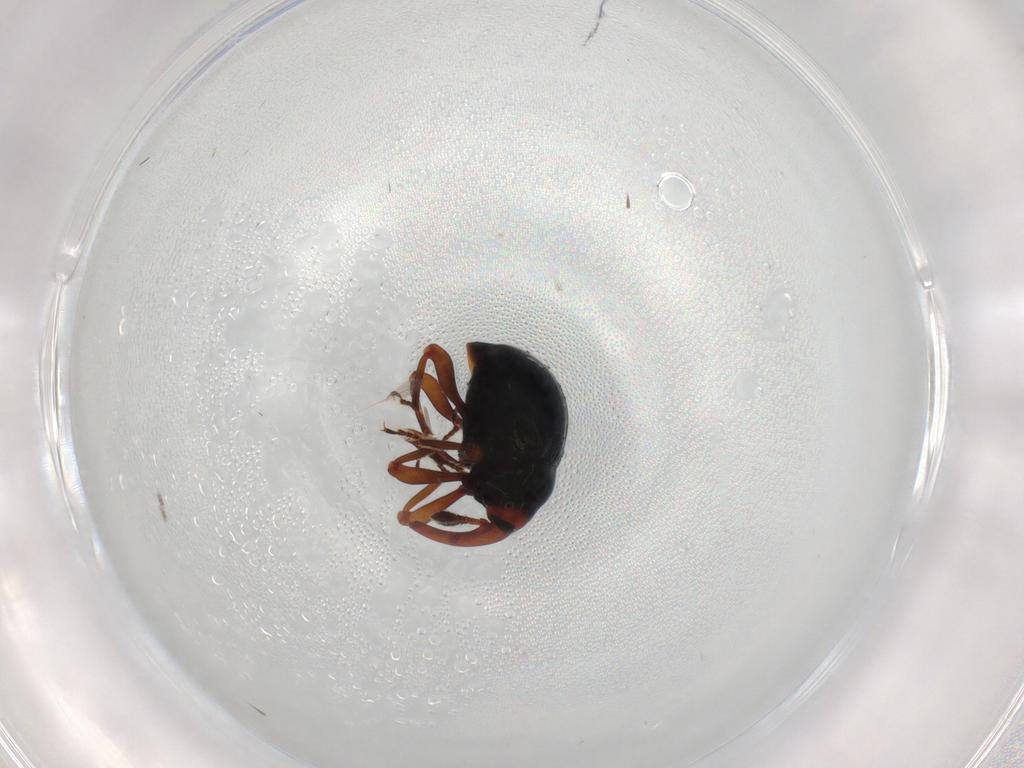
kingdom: Animalia
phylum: Arthropoda
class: Insecta
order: Coleoptera
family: Curculionidae
